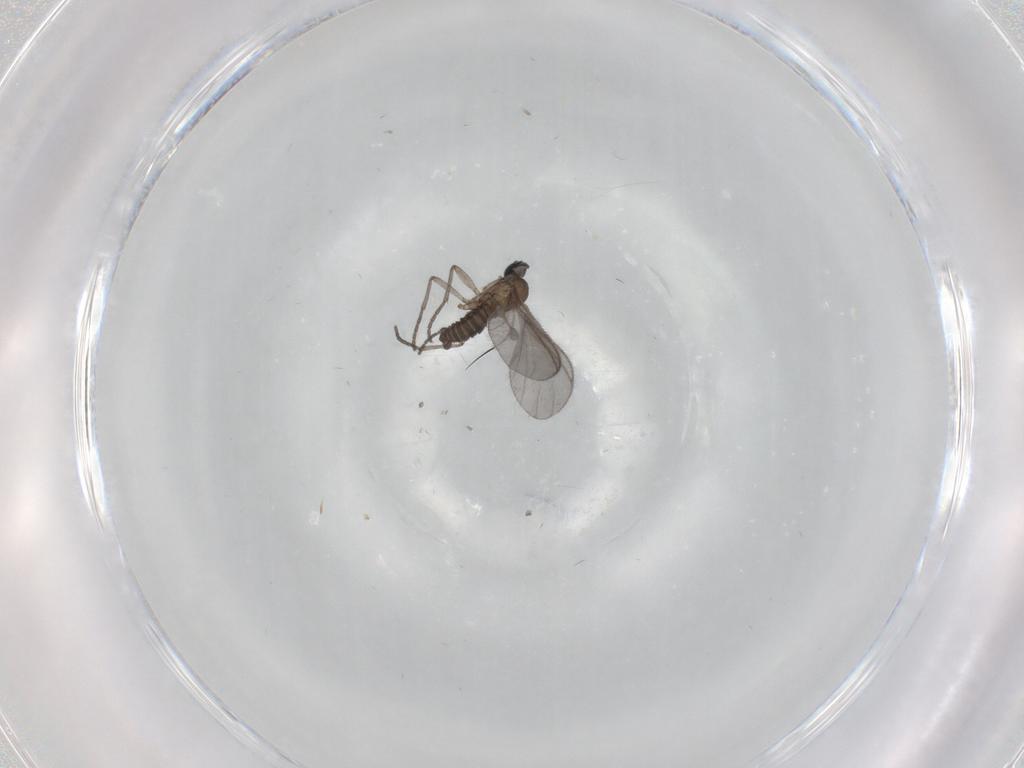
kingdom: Animalia
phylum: Arthropoda
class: Insecta
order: Diptera
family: Sciaridae
